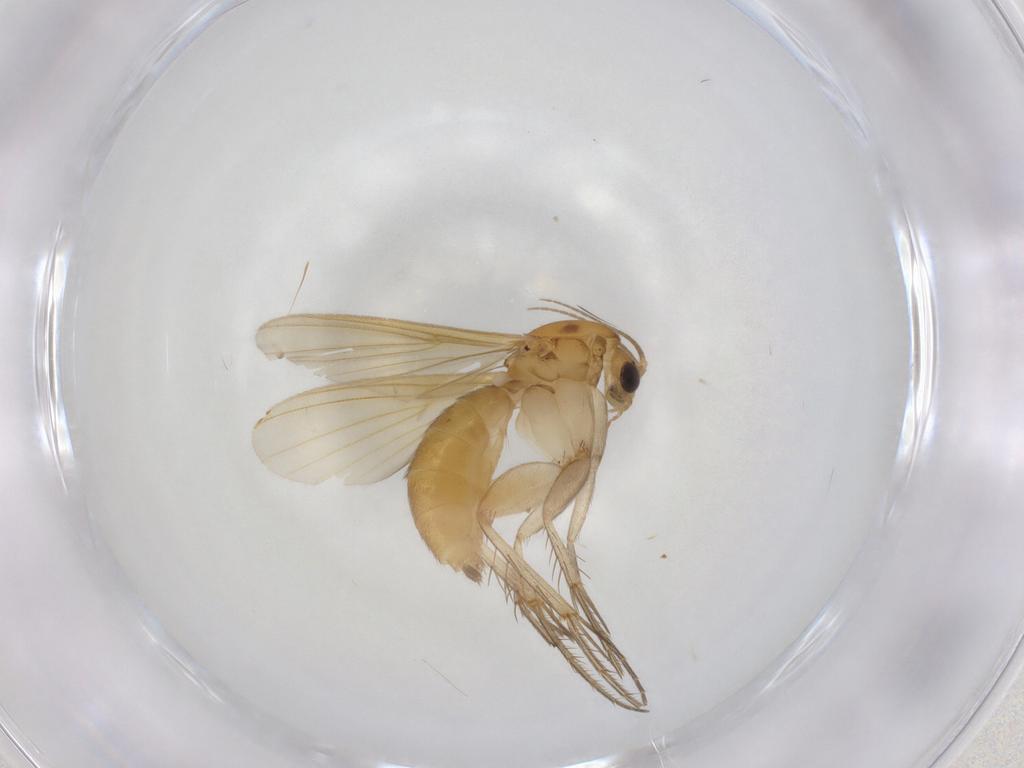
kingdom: Animalia
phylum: Arthropoda
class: Insecta
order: Diptera
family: Mycetophilidae
